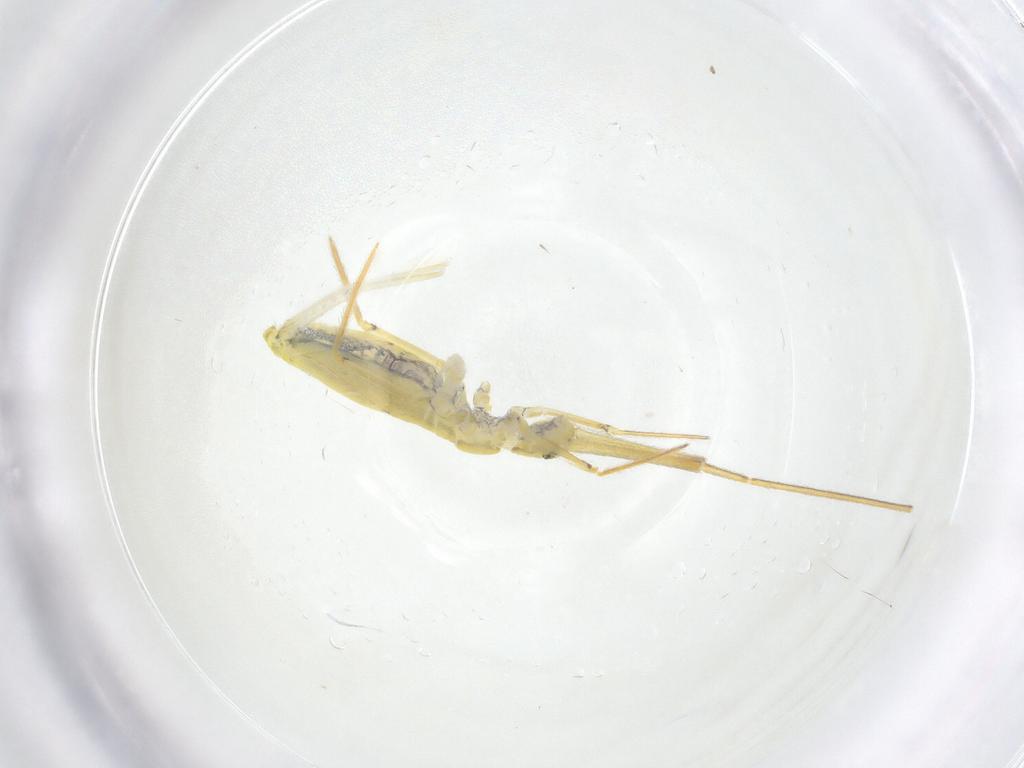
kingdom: Animalia
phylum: Arthropoda
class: Collembola
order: Entomobryomorpha
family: Entomobryidae
